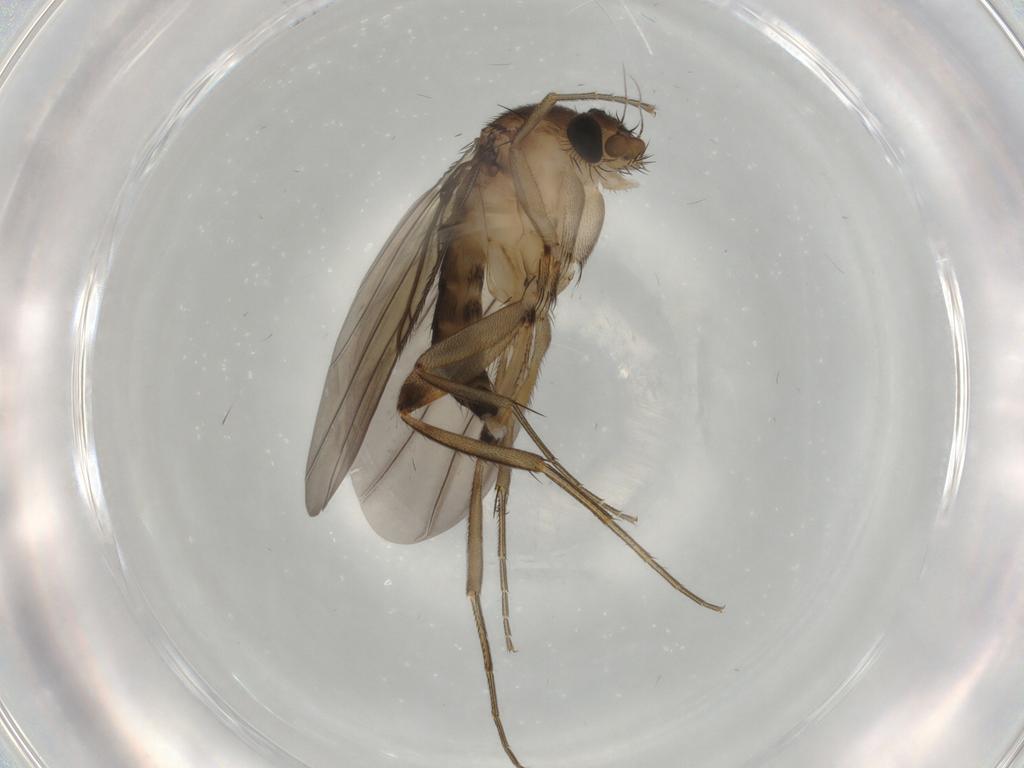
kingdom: Animalia
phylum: Arthropoda
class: Insecta
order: Diptera
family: Phoridae
